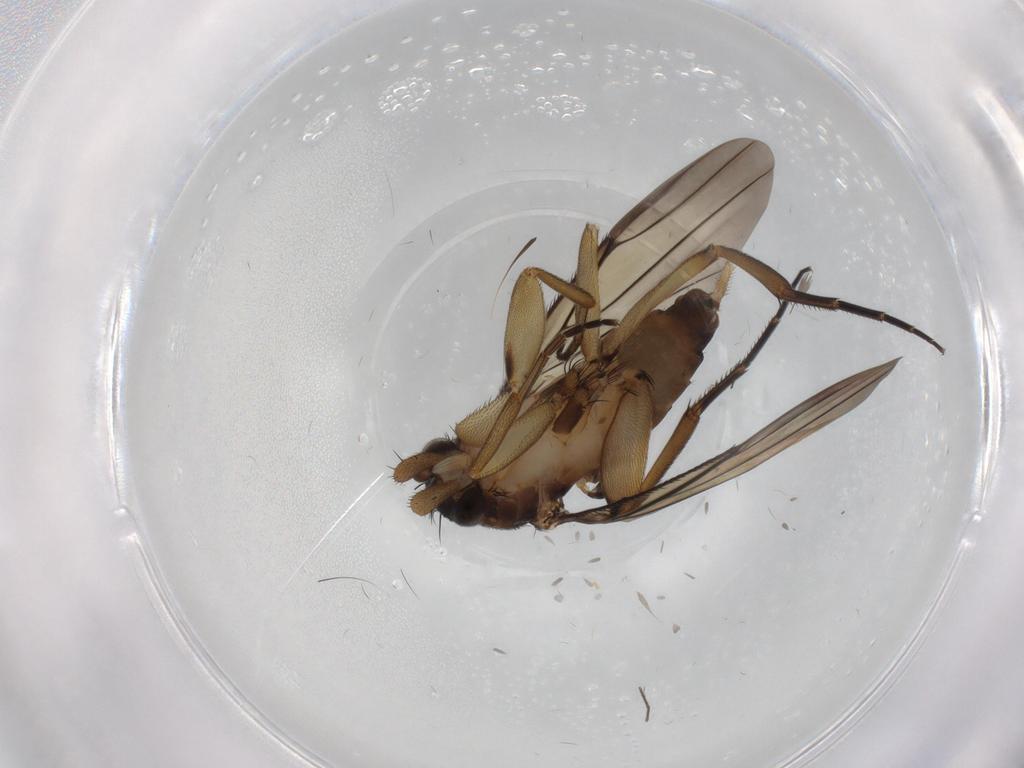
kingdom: Animalia
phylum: Arthropoda
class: Insecta
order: Diptera
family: Phoridae
